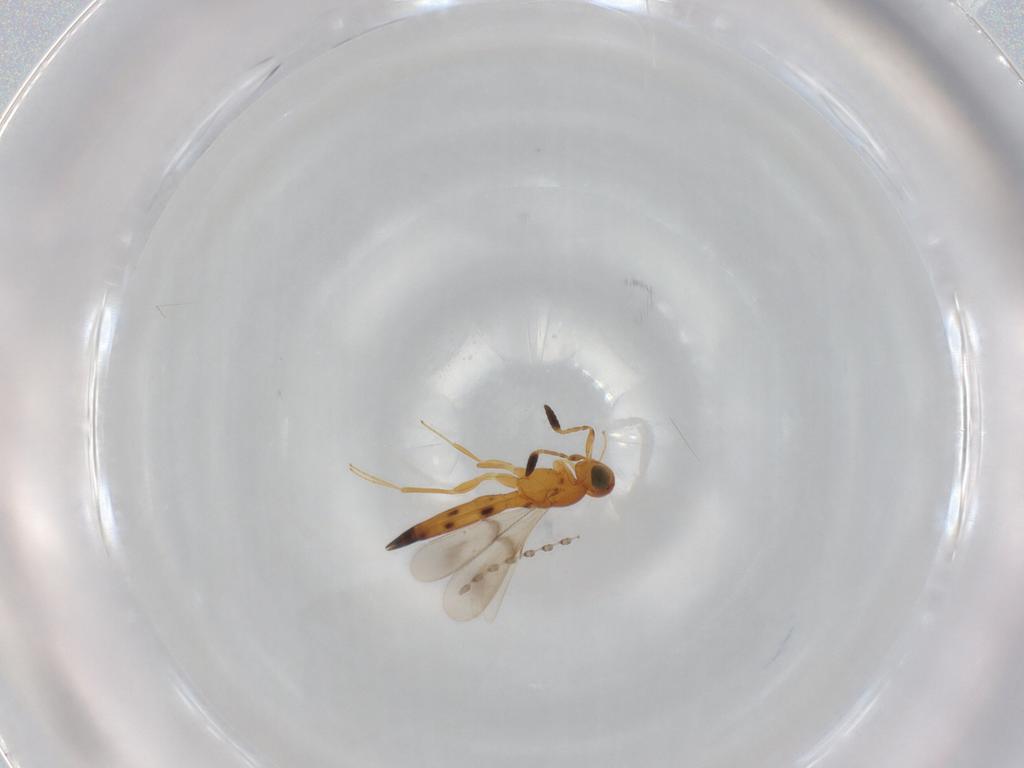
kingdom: Animalia
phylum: Arthropoda
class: Insecta
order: Hymenoptera
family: Scelionidae
